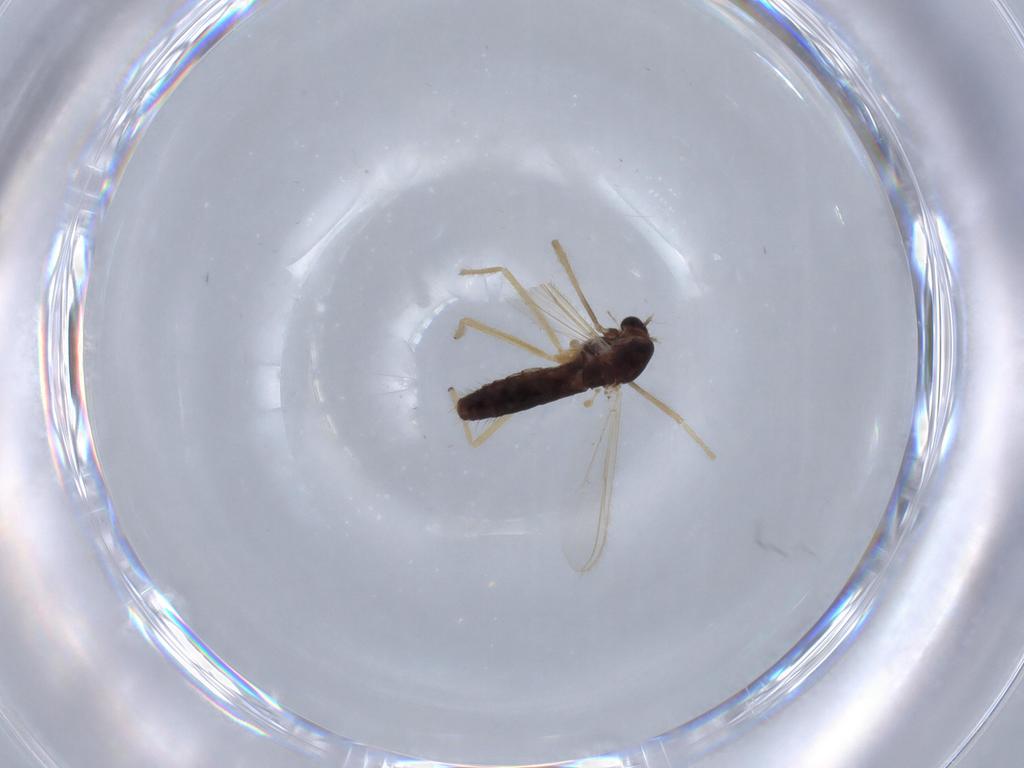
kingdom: Animalia
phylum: Arthropoda
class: Insecta
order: Diptera
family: Chironomidae
